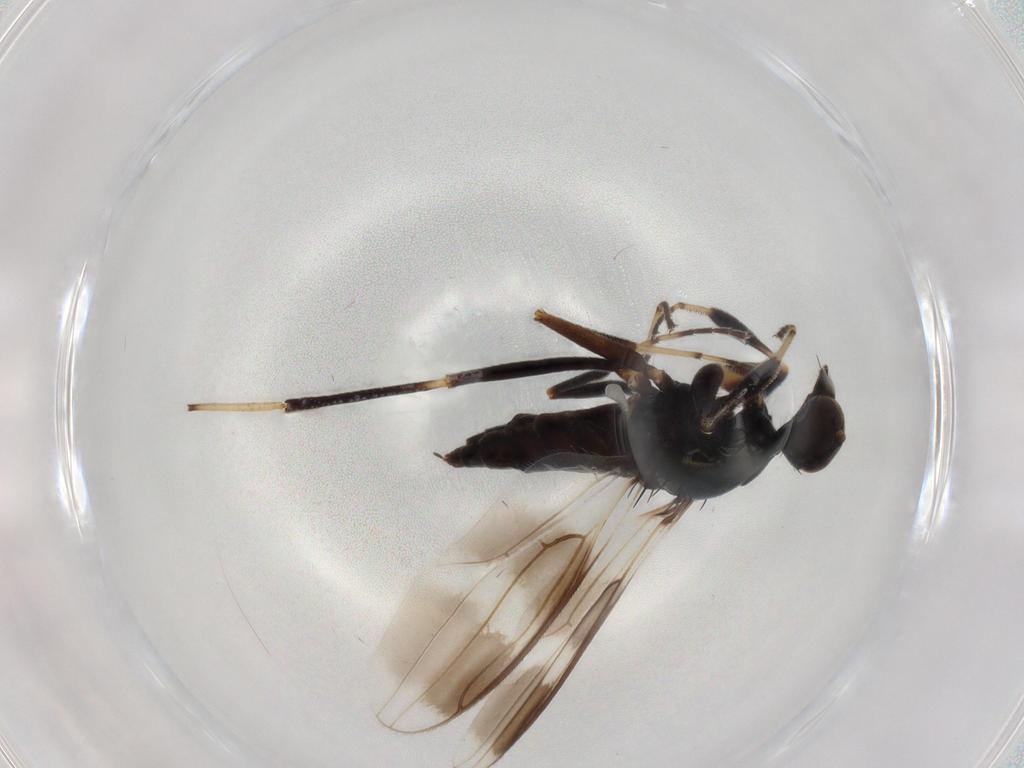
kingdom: Animalia
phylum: Arthropoda
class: Insecta
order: Diptera
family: Hybotidae
